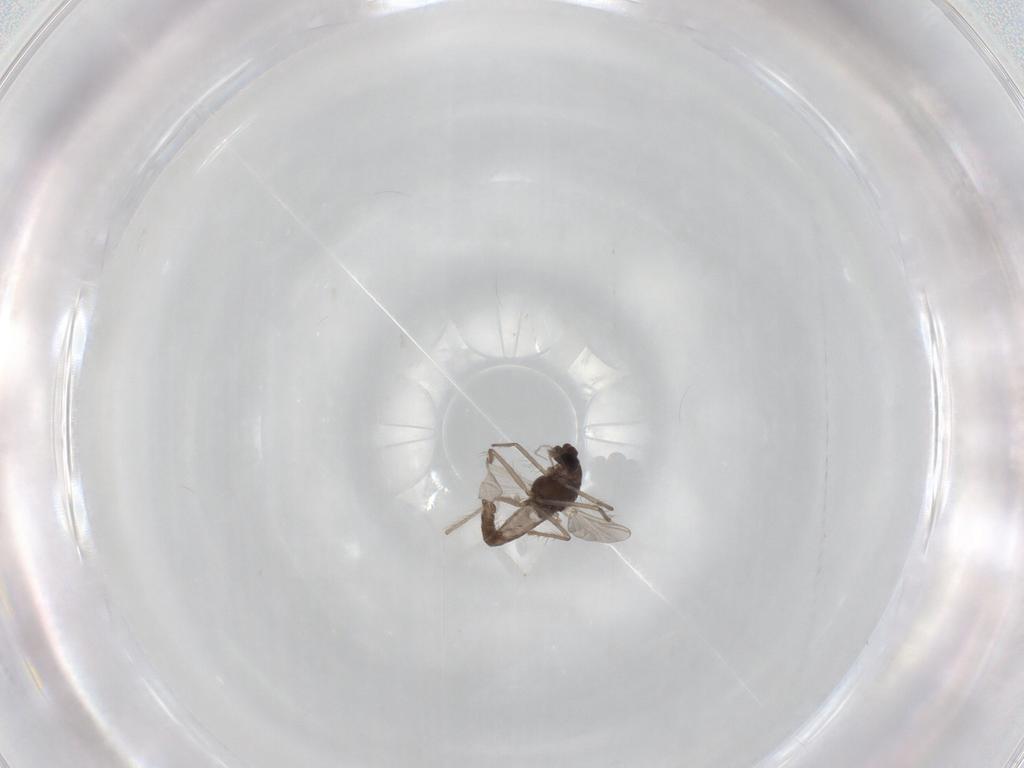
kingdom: Animalia
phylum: Arthropoda
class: Insecta
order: Diptera
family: Chironomidae
